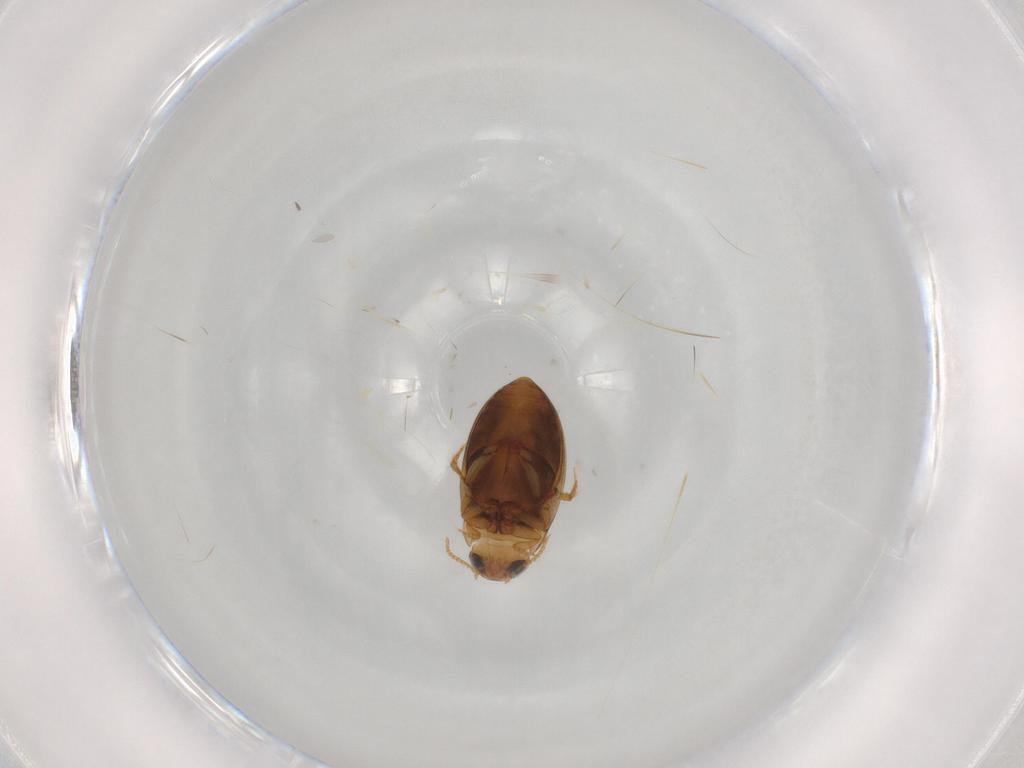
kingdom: Animalia
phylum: Arthropoda
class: Insecta
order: Coleoptera
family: Dytiscidae
